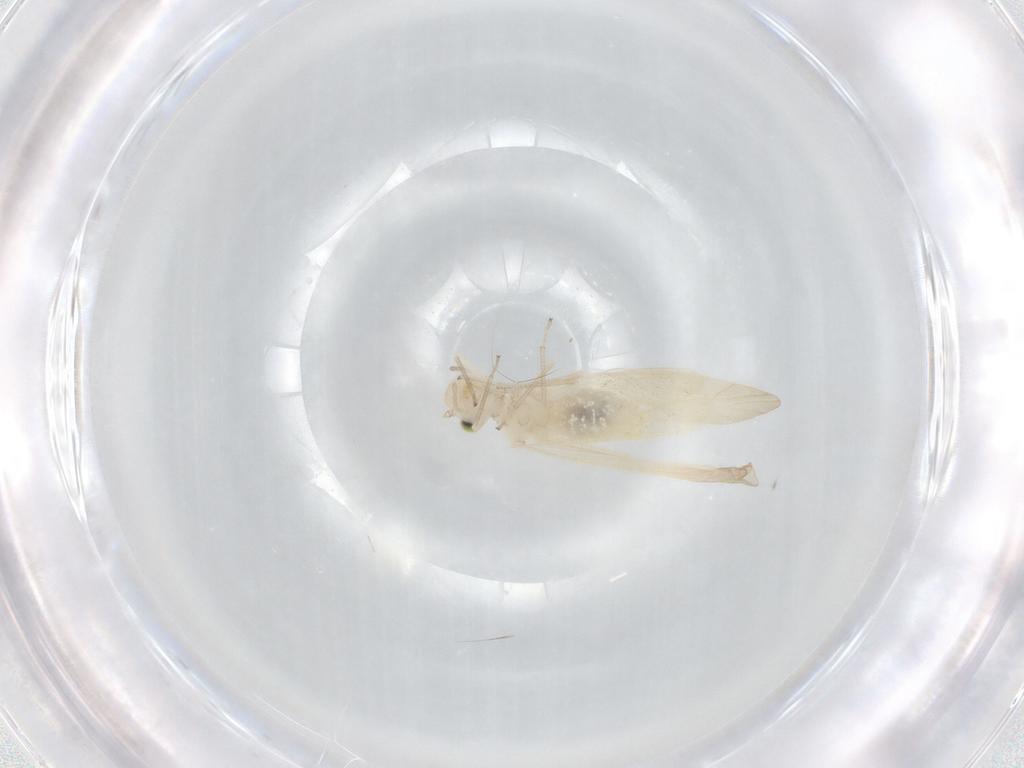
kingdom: Animalia
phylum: Arthropoda
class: Insecta
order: Psocodea
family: Caeciliusidae
